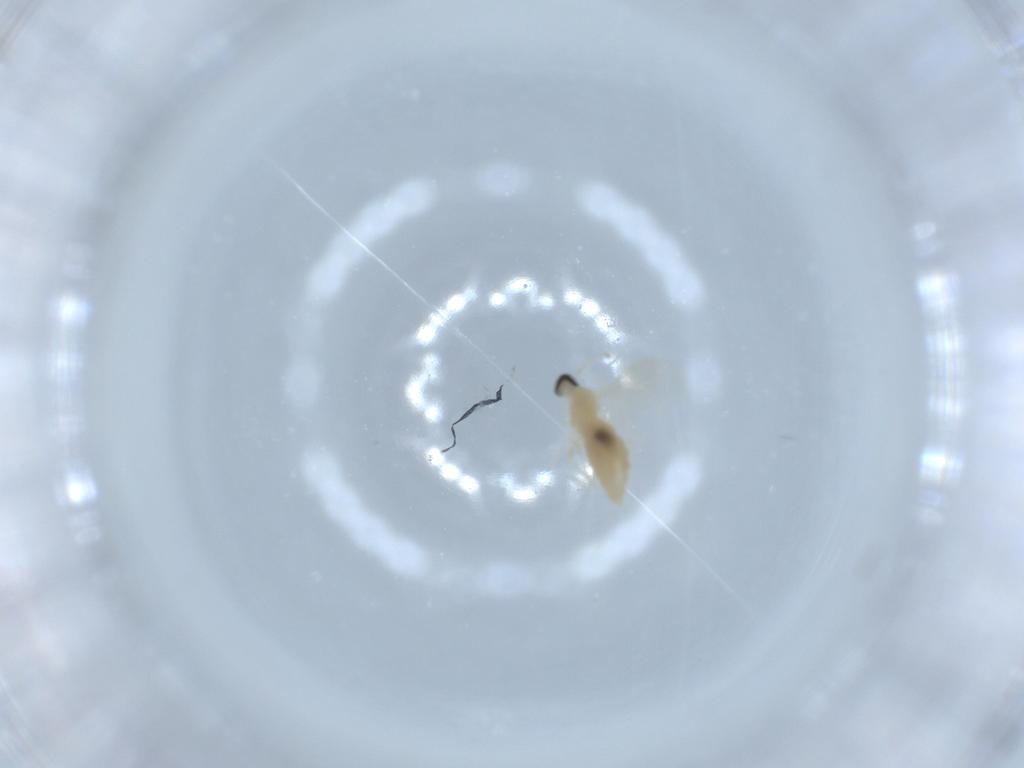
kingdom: Animalia
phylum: Arthropoda
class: Insecta
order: Diptera
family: Cecidomyiidae
